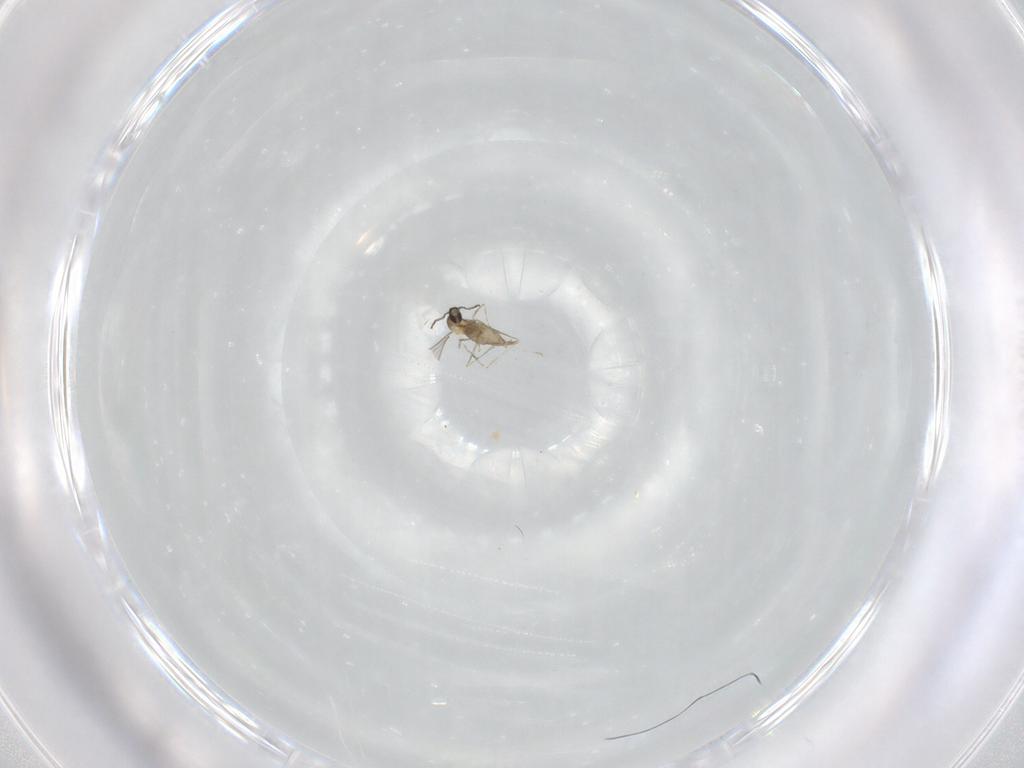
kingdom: Animalia
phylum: Arthropoda
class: Insecta
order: Diptera
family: Cecidomyiidae
